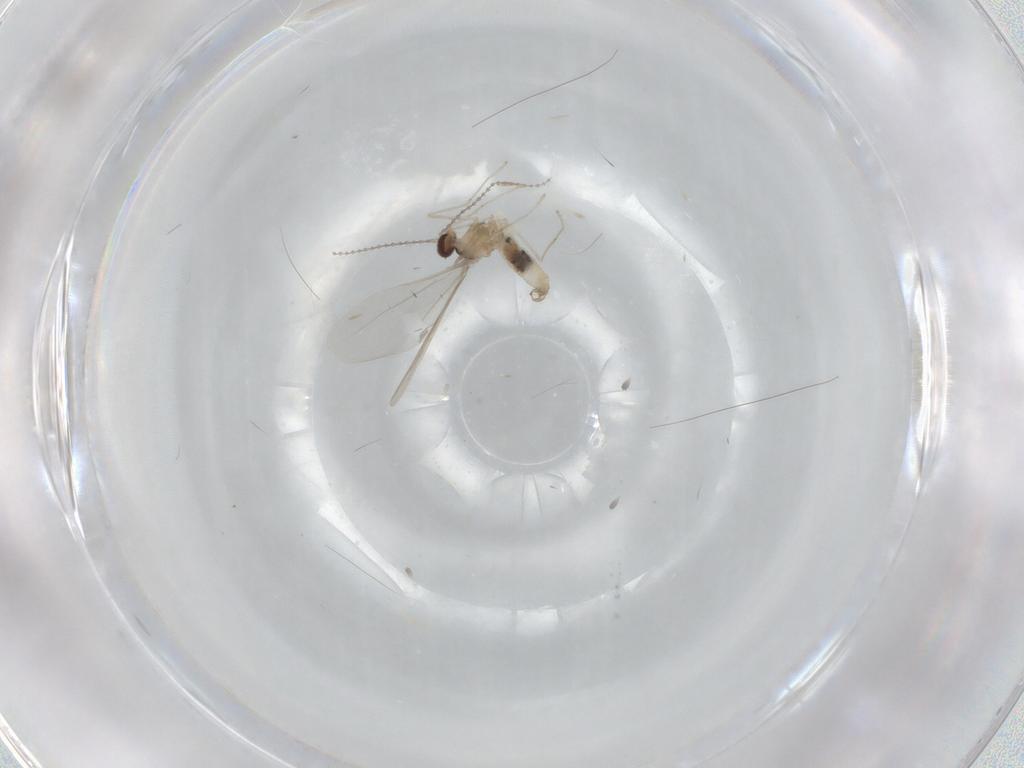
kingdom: Animalia
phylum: Arthropoda
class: Insecta
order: Diptera
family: Cecidomyiidae
